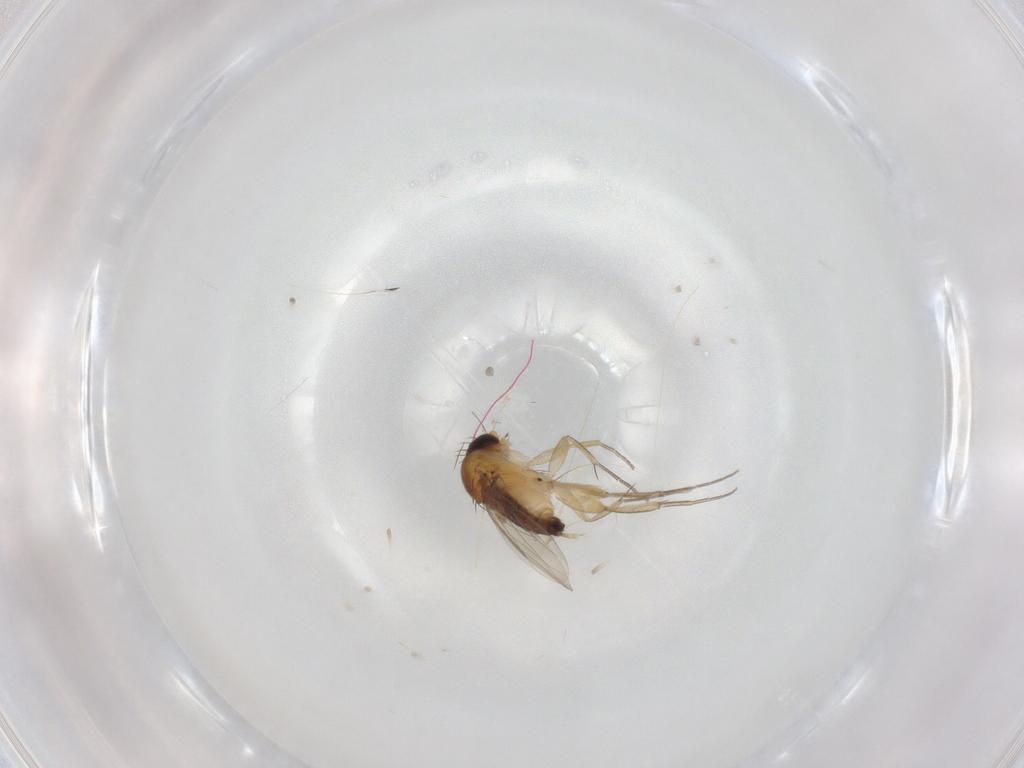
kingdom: Animalia
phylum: Arthropoda
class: Insecta
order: Diptera
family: Phoridae
